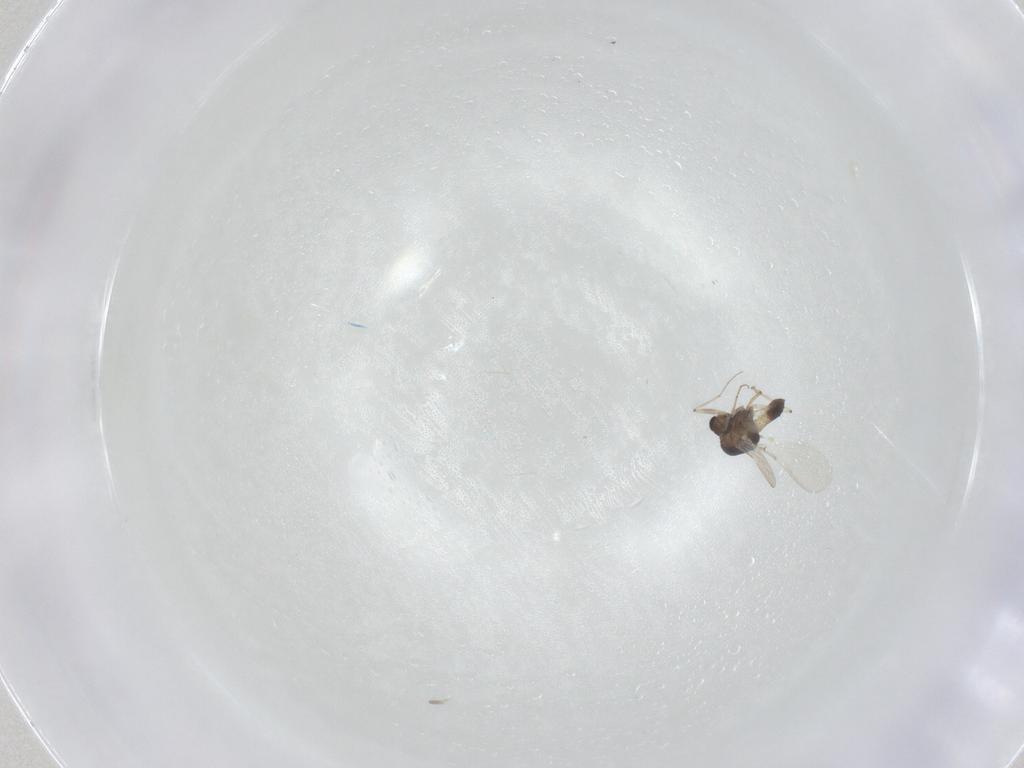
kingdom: Animalia
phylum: Arthropoda
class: Insecta
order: Diptera
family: Chironomidae
